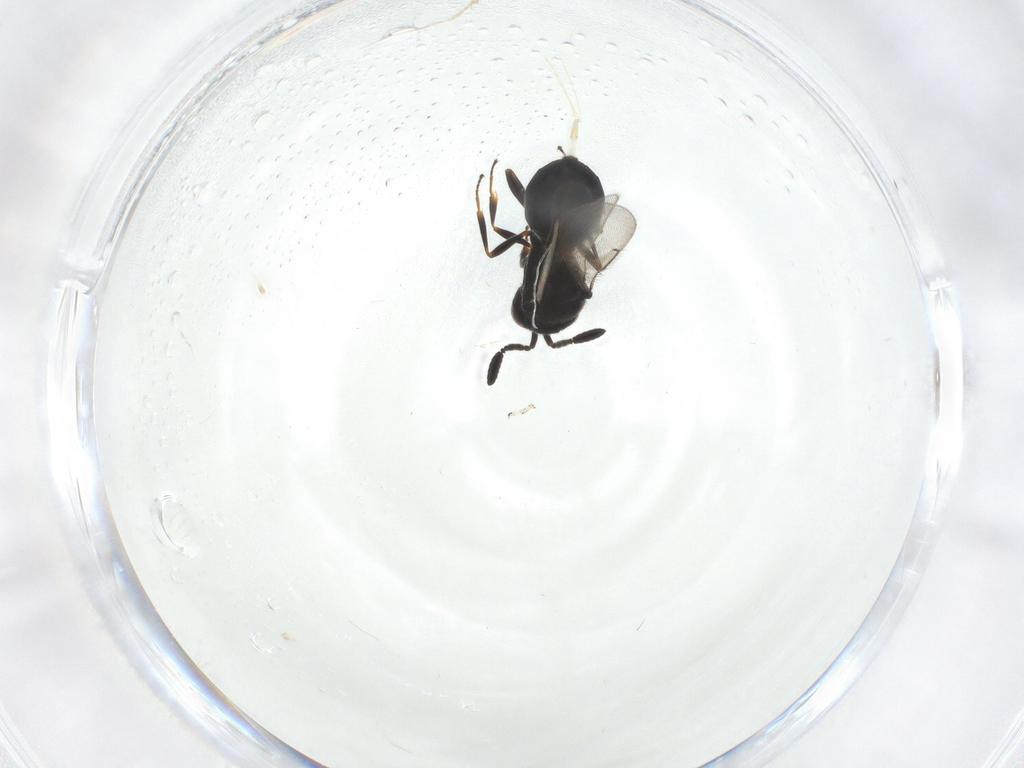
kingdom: Animalia
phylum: Arthropoda
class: Insecta
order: Hymenoptera
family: Scelionidae
